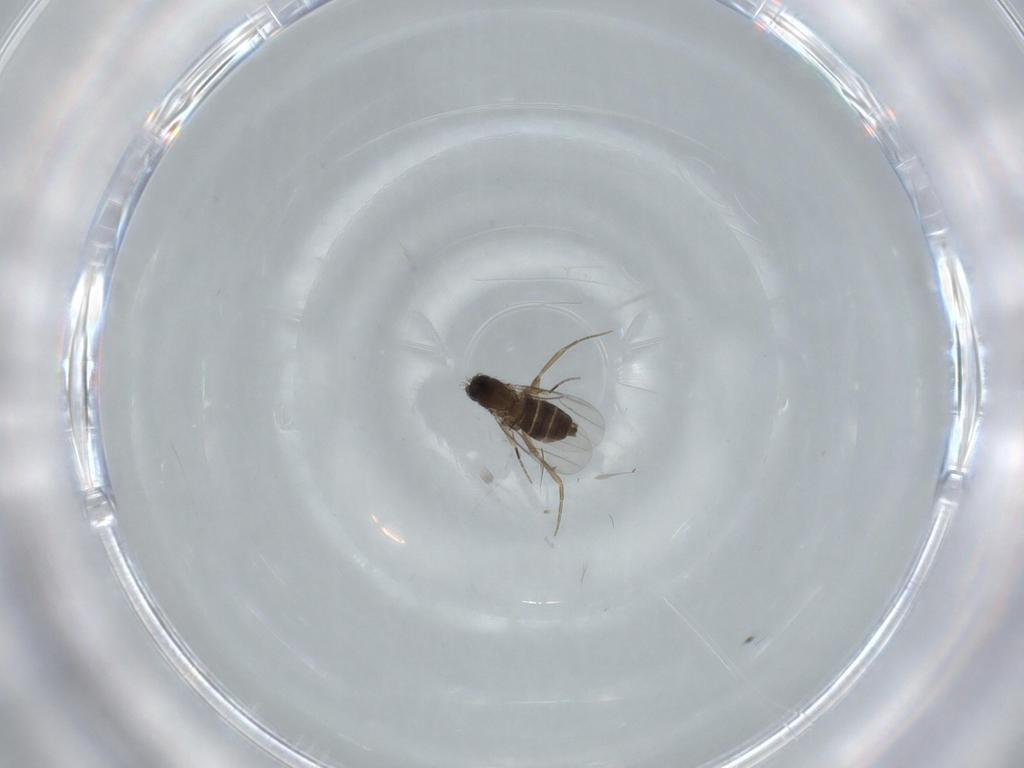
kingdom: Animalia
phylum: Arthropoda
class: Insecta
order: Diptera
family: Phoridae
